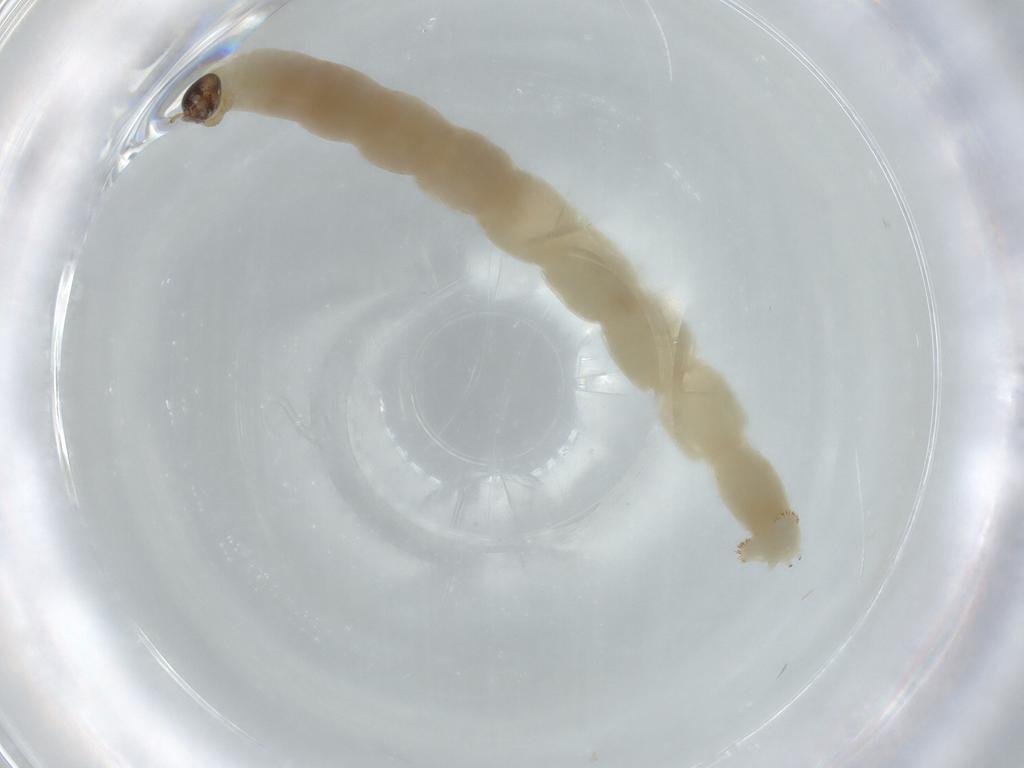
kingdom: Animalia
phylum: Arthropoda
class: Insecta
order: Diptera
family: Chironomidae
